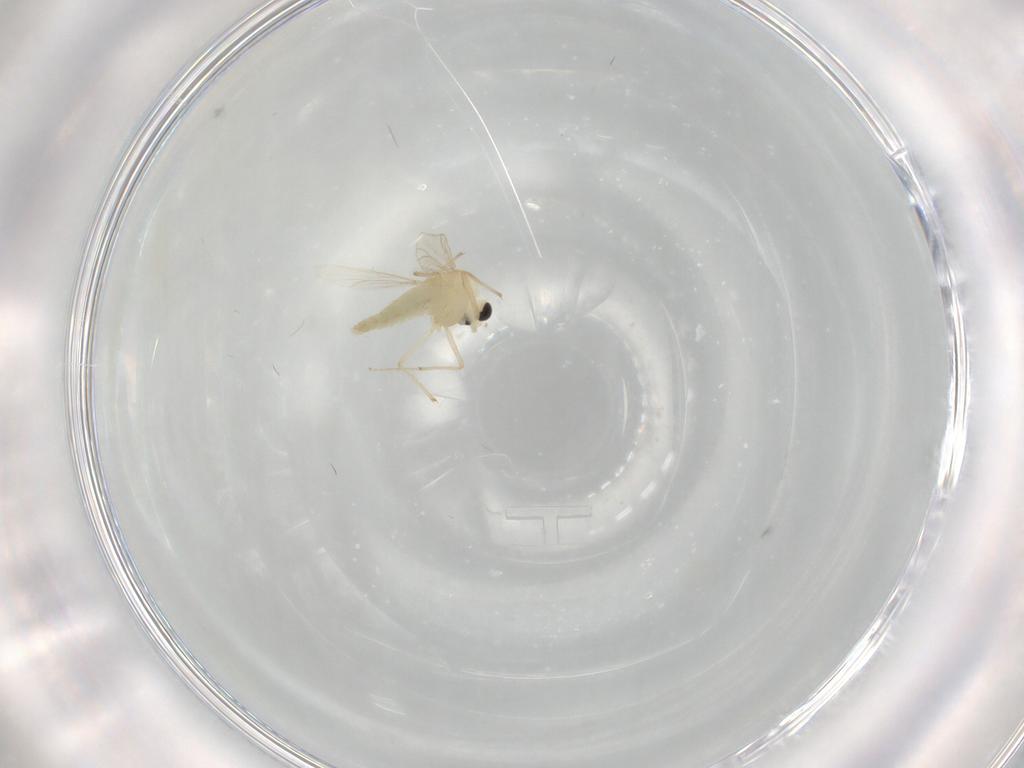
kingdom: Animalia
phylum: Arthropoda
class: Insecta
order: Diptera
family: Chironomidae
